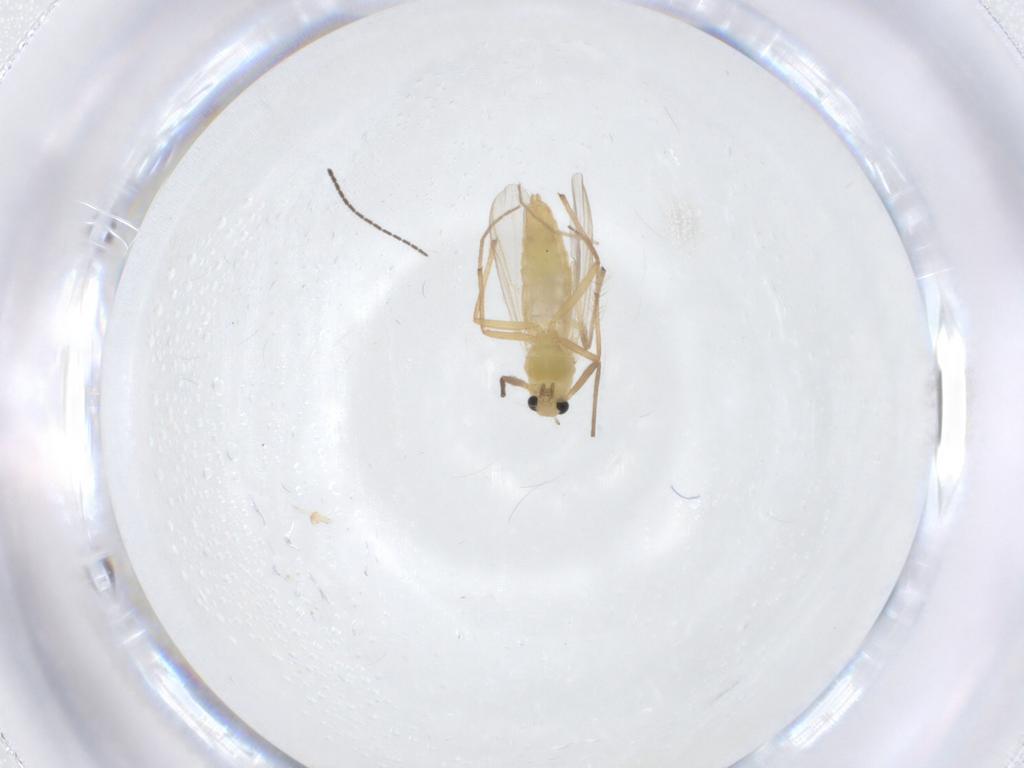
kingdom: Animalia
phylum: Arthropoda
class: Insecta
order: Diptera
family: Chironomidae
